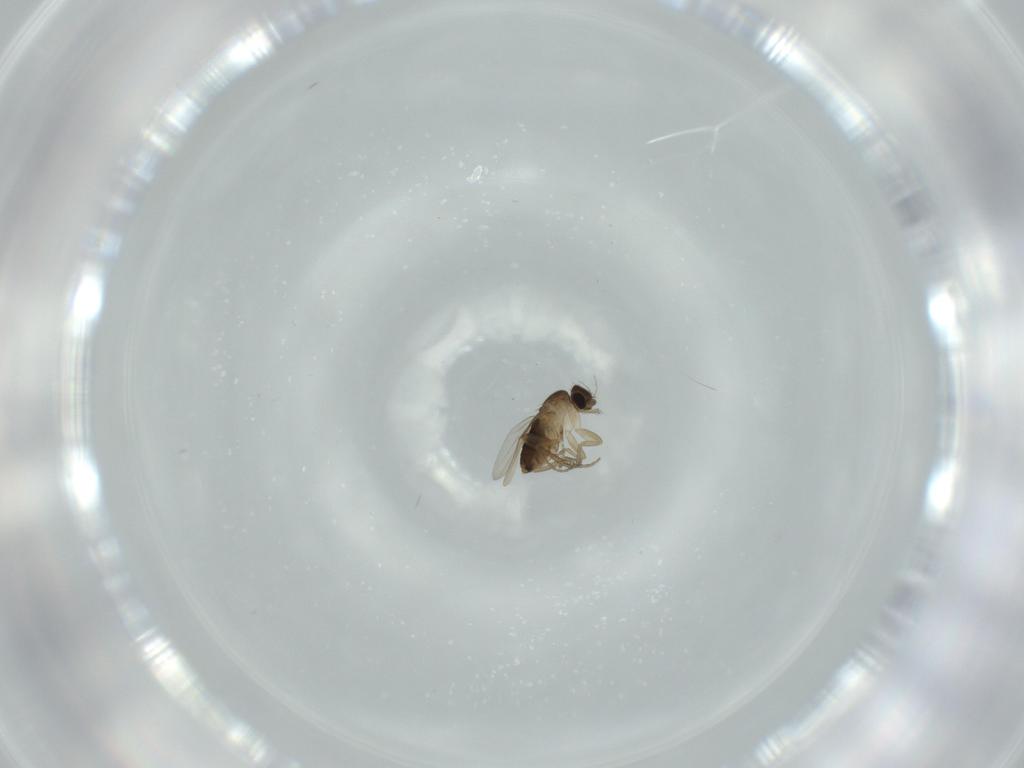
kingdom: Animalia
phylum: Arthropoda
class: Insecta
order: Diptera
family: Phoridae
